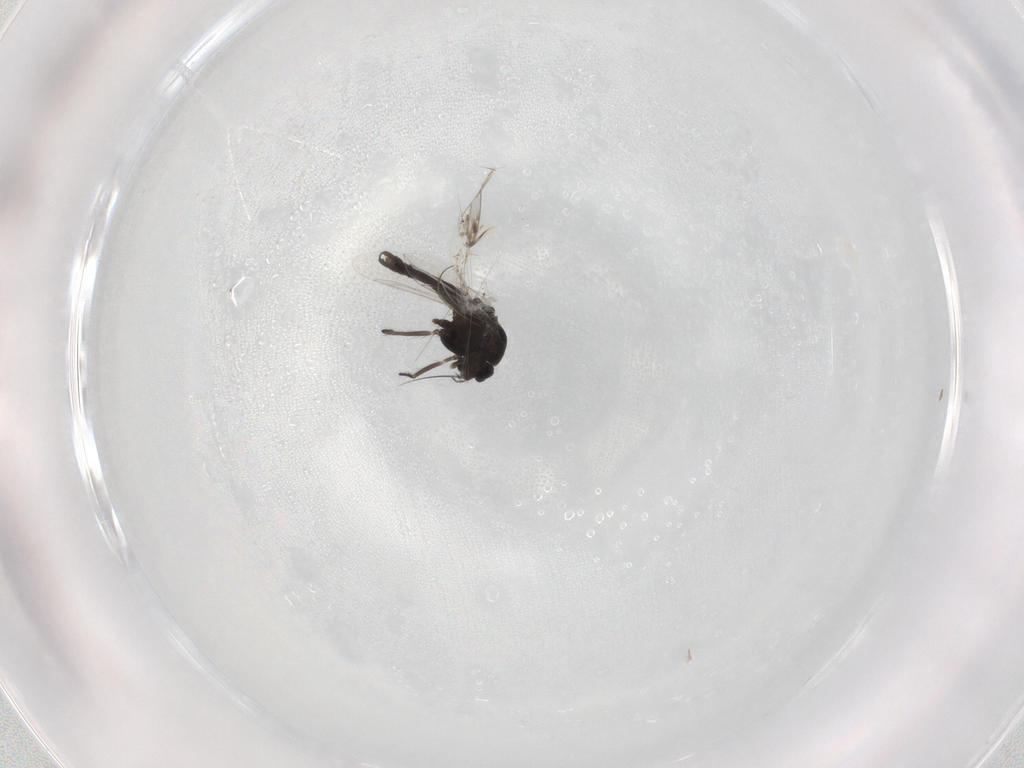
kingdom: Animalia
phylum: Arthropoda
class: Insecta
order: Diptera
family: Chironomidae
